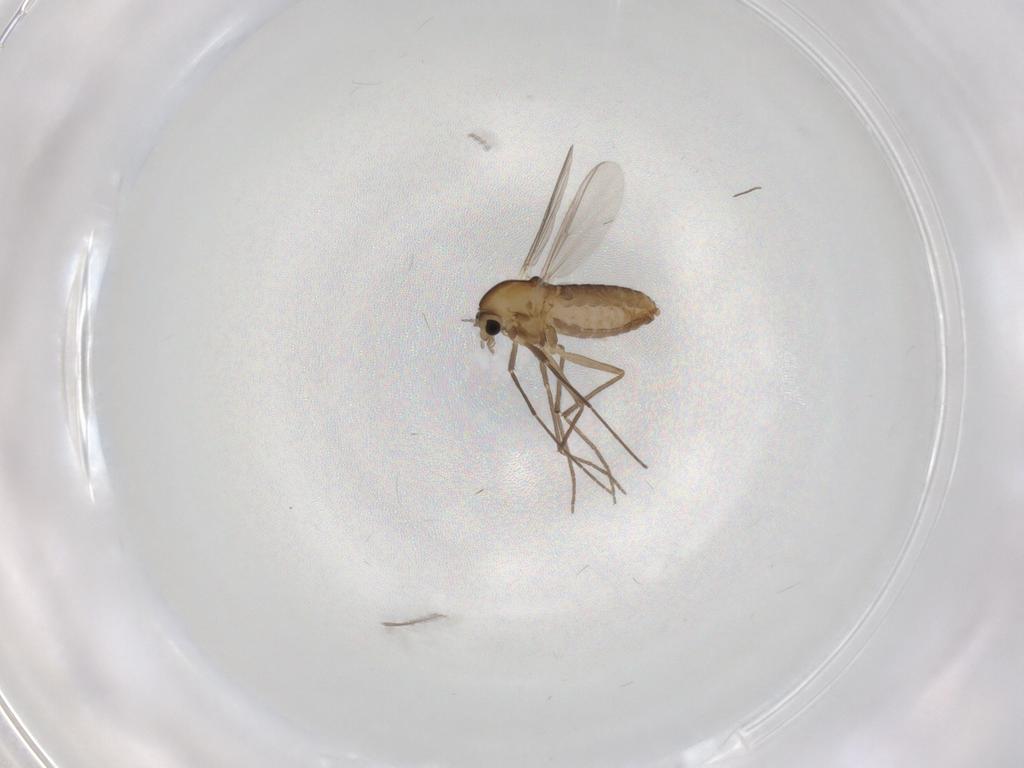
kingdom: Animalia
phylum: Arthropoda
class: Insecta
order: Diptera
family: Chironomidae
